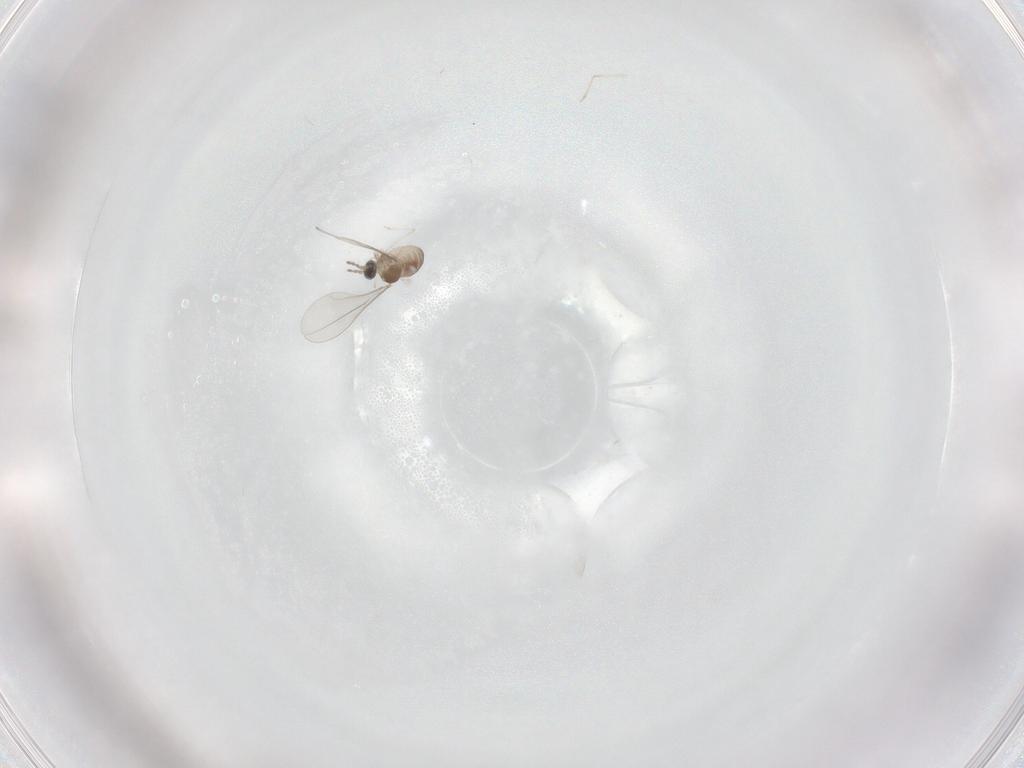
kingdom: Animalia
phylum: Arthropoda
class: Insecta
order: Diptera
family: Cecidomyiidae
